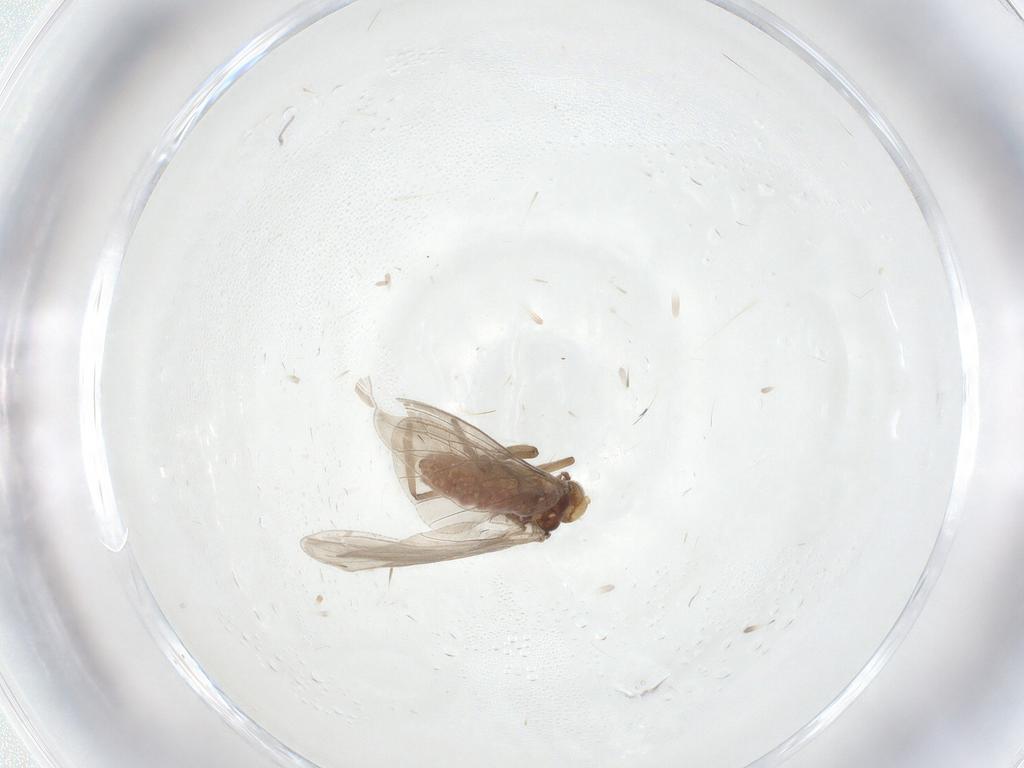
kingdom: Animalia
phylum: Arthropoda
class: Insecta
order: Neuroptera
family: Coniopterygidae
